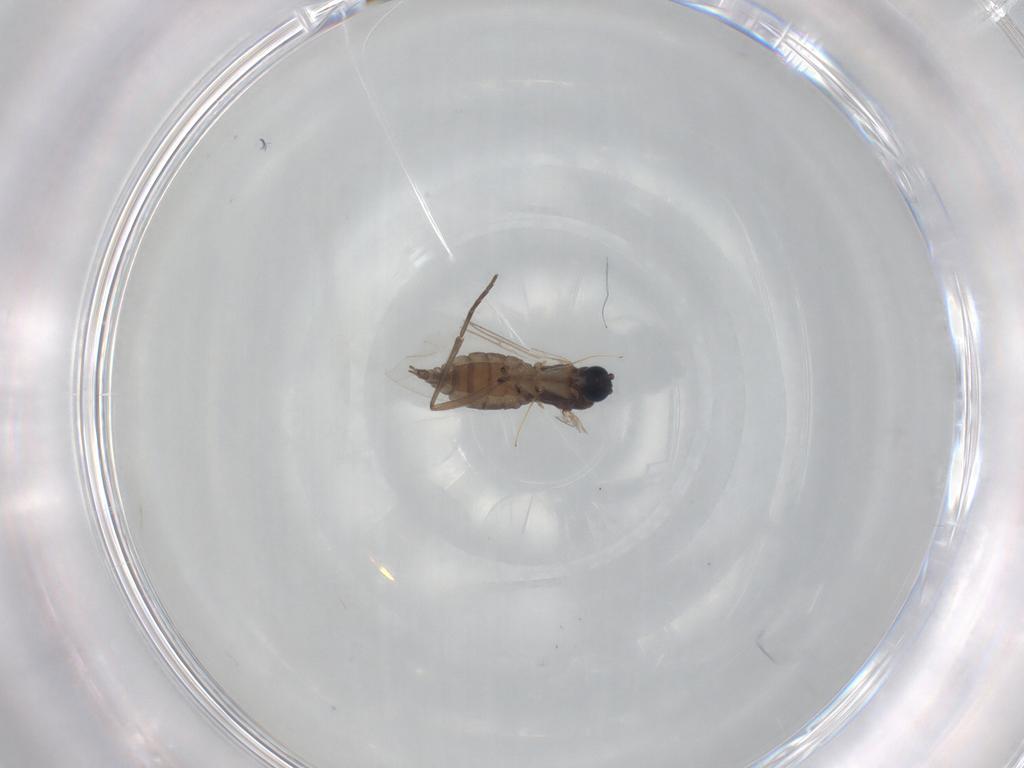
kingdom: Animalia
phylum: Arthropoda
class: Insecta
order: Diptera
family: Sciaridae
